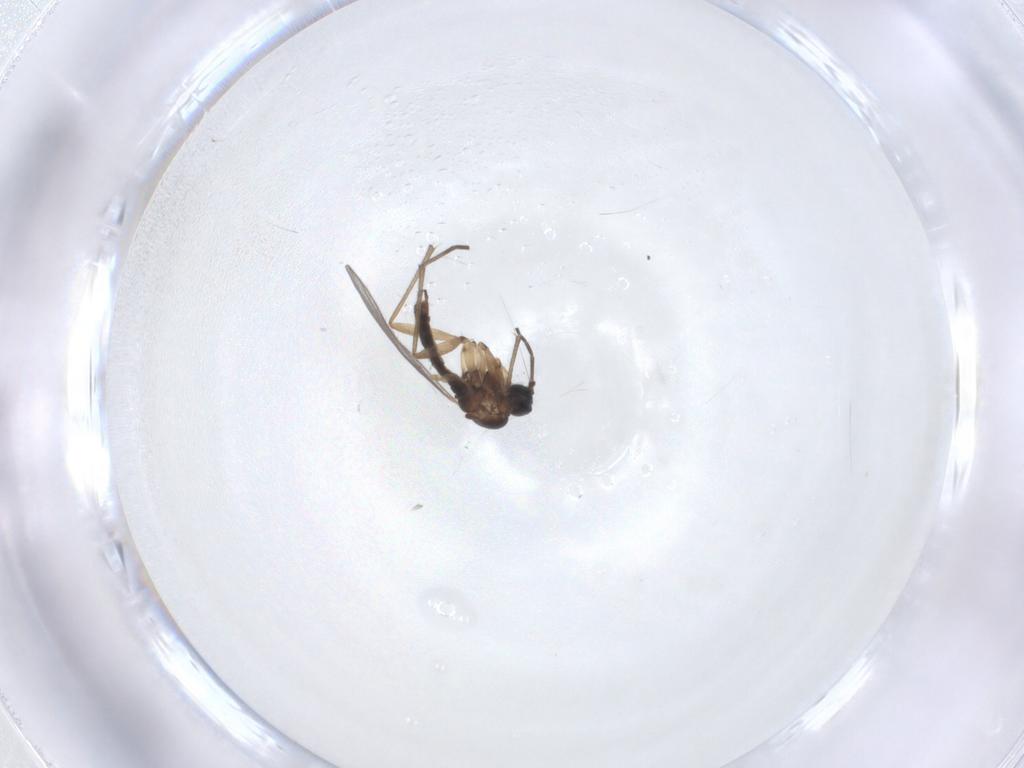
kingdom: Animalia
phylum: Arthropoda
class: Insecta
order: Diptera
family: Sciaridae
